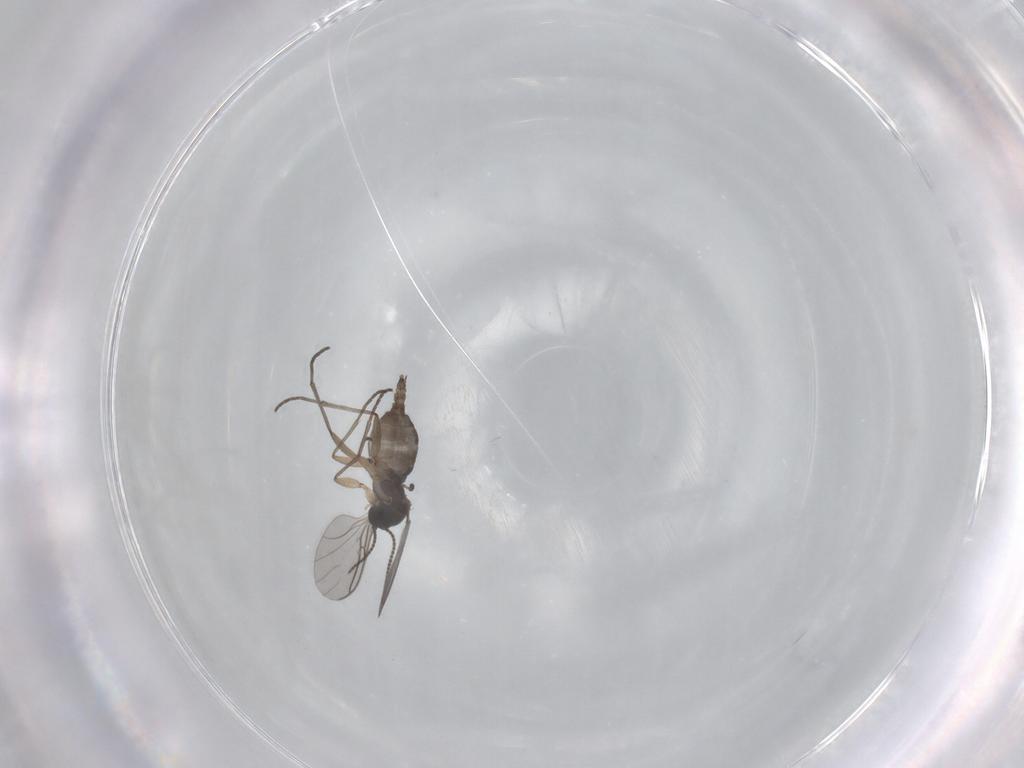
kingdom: Animalia
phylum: Arthropoda
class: Insecta
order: Diptera
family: Sciaridae
